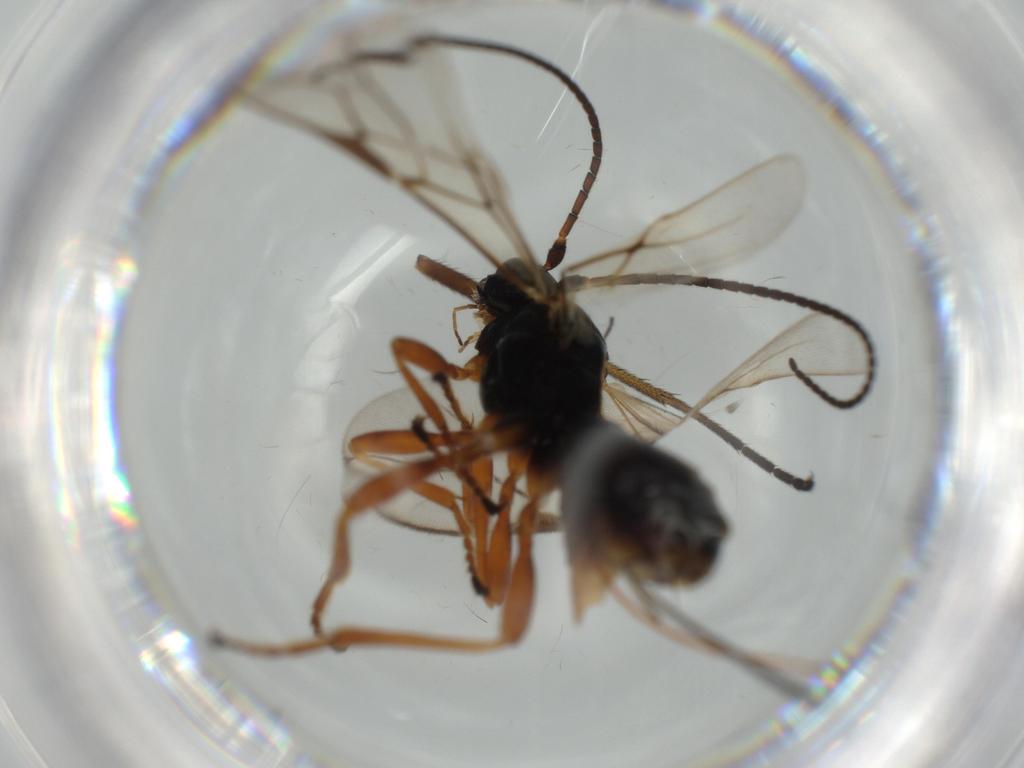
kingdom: Animalia
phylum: Arthropoda
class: Insecta
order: Hymenoptera
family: Braconidae
